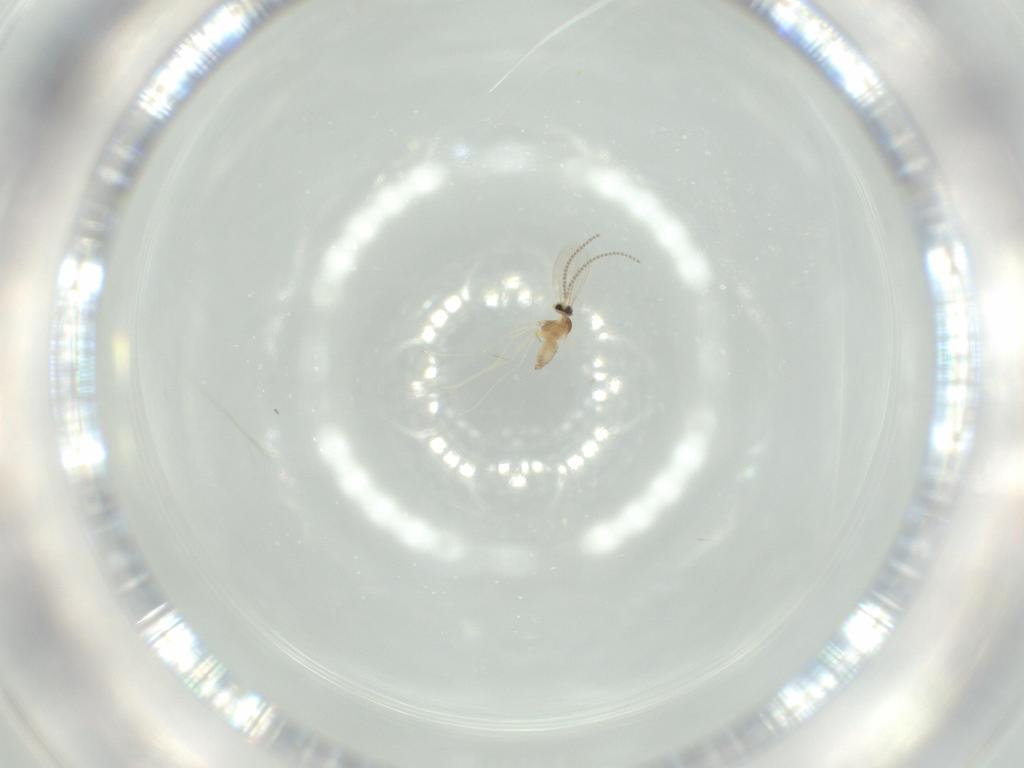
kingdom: Animalia
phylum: Arthropoda
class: Insecta
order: Diptera
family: Cecidomyiidae
